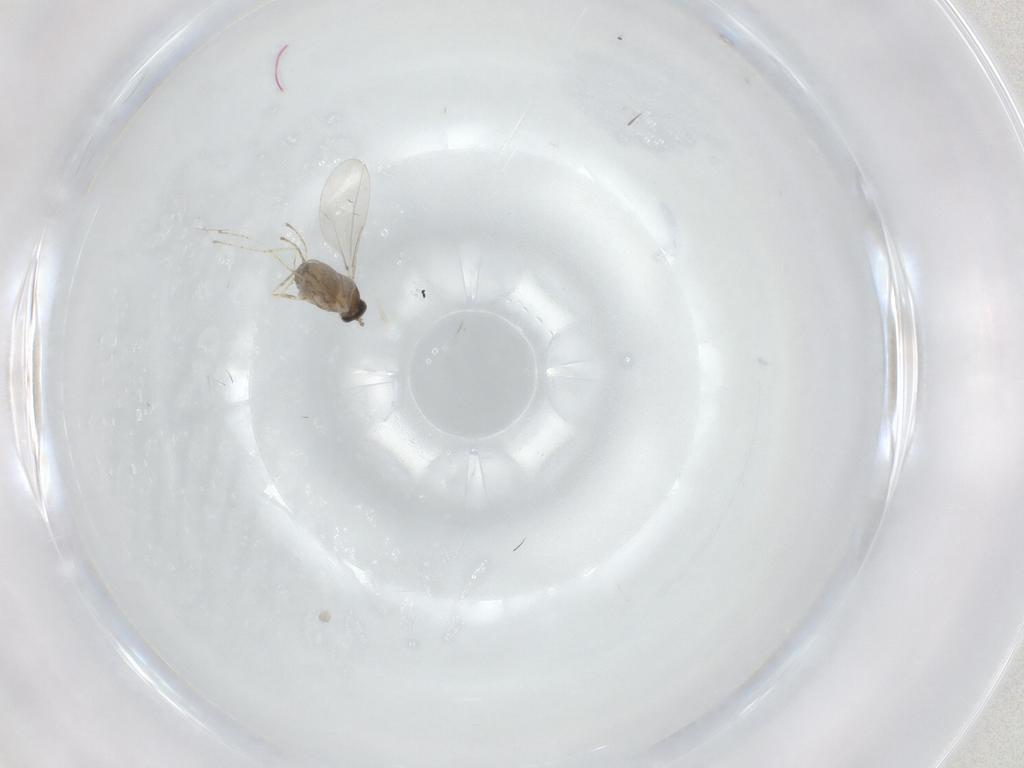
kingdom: Animalia
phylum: Arthropoda
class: Insecta
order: Diptera
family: Cecidomyiidae
